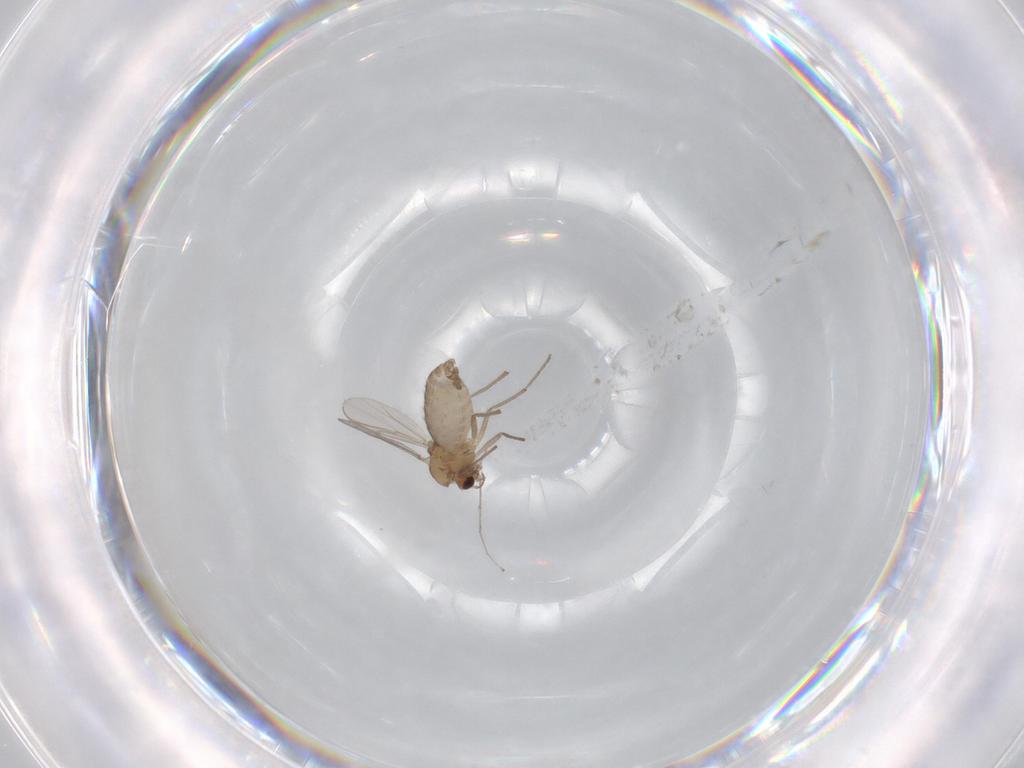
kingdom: Animalia
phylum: Arthropoda
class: Insecta
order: Diptera
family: Chironomidae
